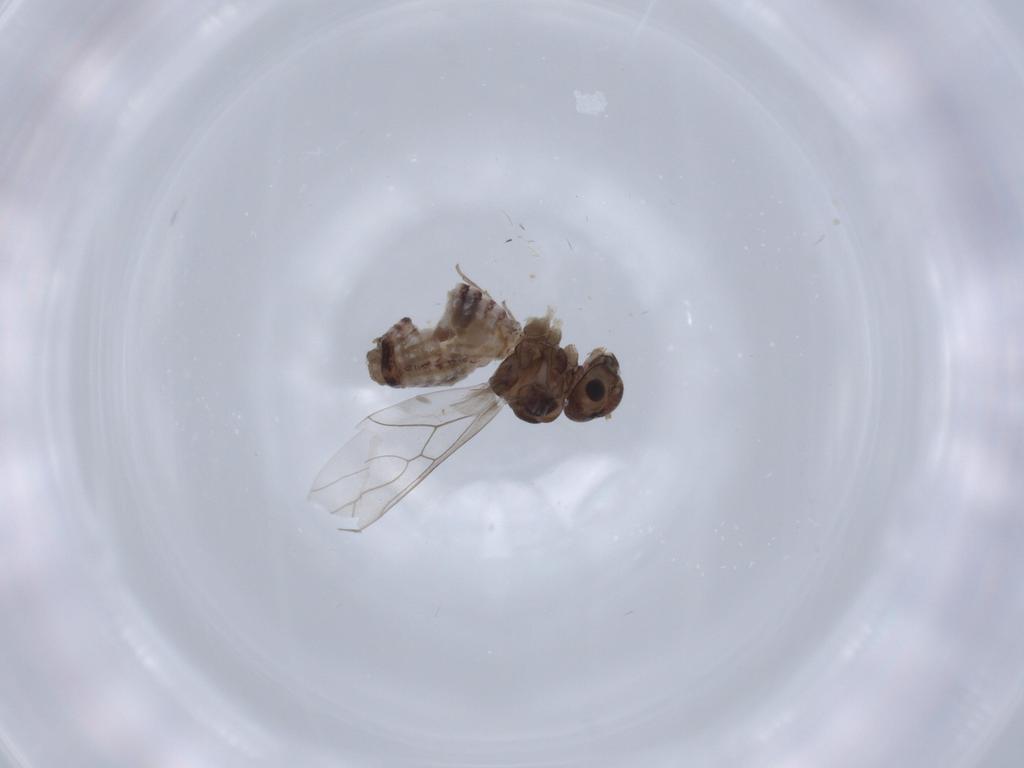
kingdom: Animalia
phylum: Arthropoda
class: Insecta
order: Psocodea
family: Peripsocidae
